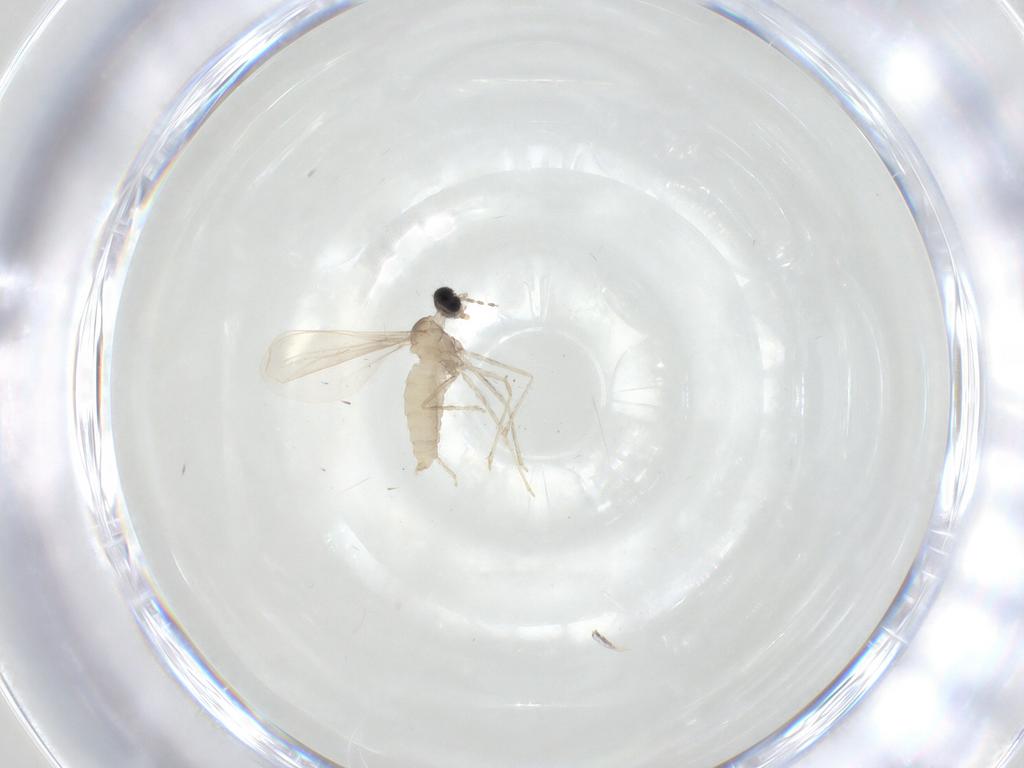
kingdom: Animalia
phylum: Arthropoda
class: Insecta
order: Diptera
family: Cecidomyiidae
